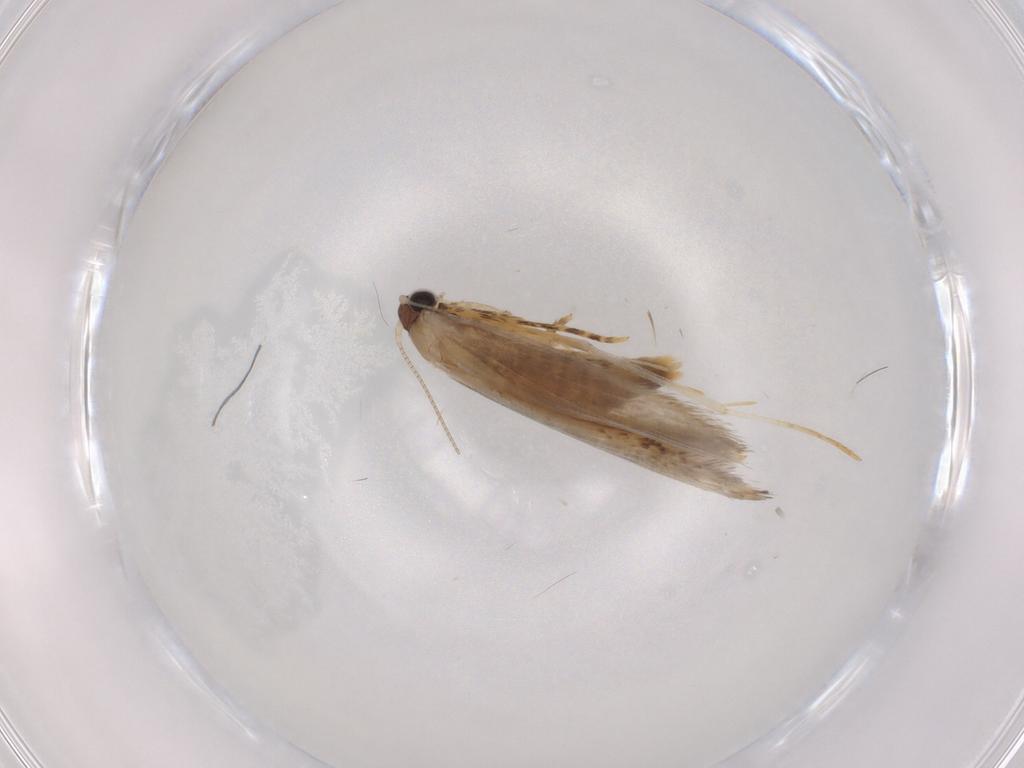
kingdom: Animalia
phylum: Arthropoda
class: Insecta
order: Lepidoptera
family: Tineidae
